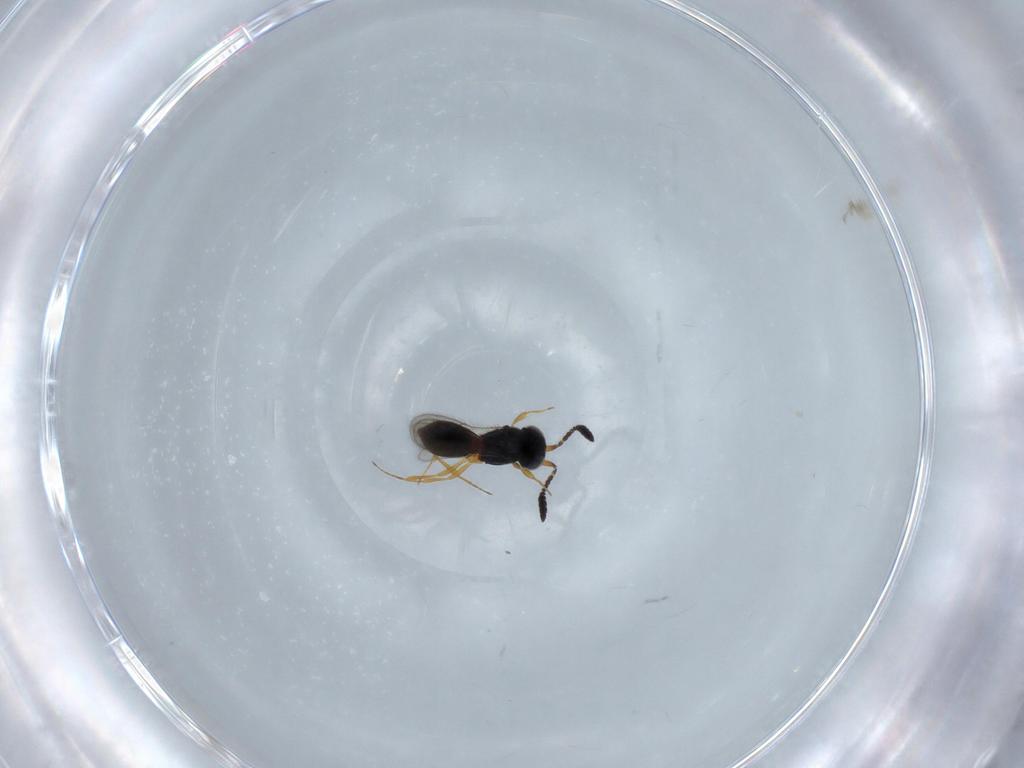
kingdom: Animalia
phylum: Arthropoda
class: Insecta
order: Hymenoptera
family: Scelionidae
